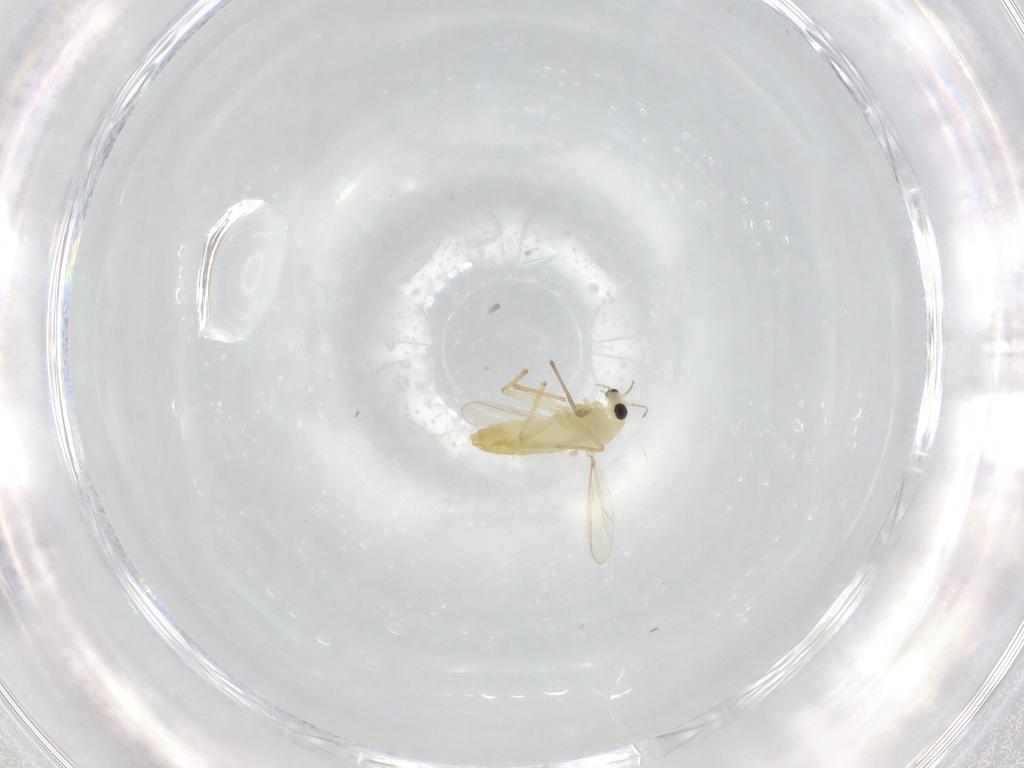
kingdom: Animalia
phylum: Arthropoda
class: Insecta
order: Diptera
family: Chironomidae
